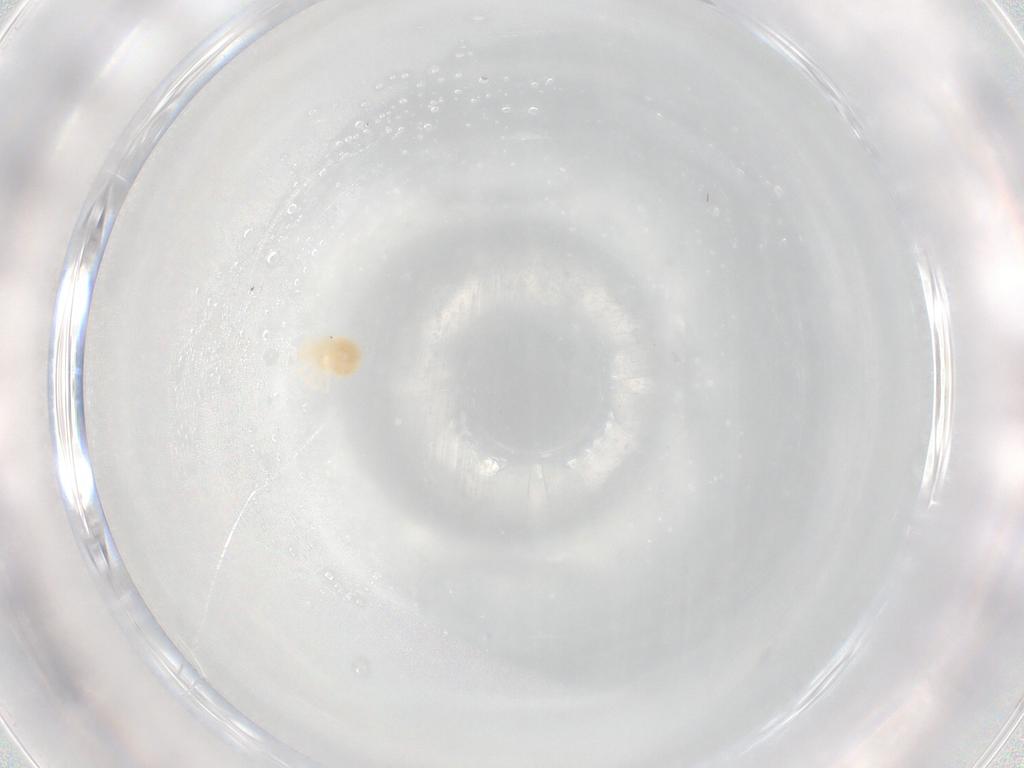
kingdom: Animalia
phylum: Arthropoda
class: Arachnida
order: Trombidiformes
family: Anystidae
